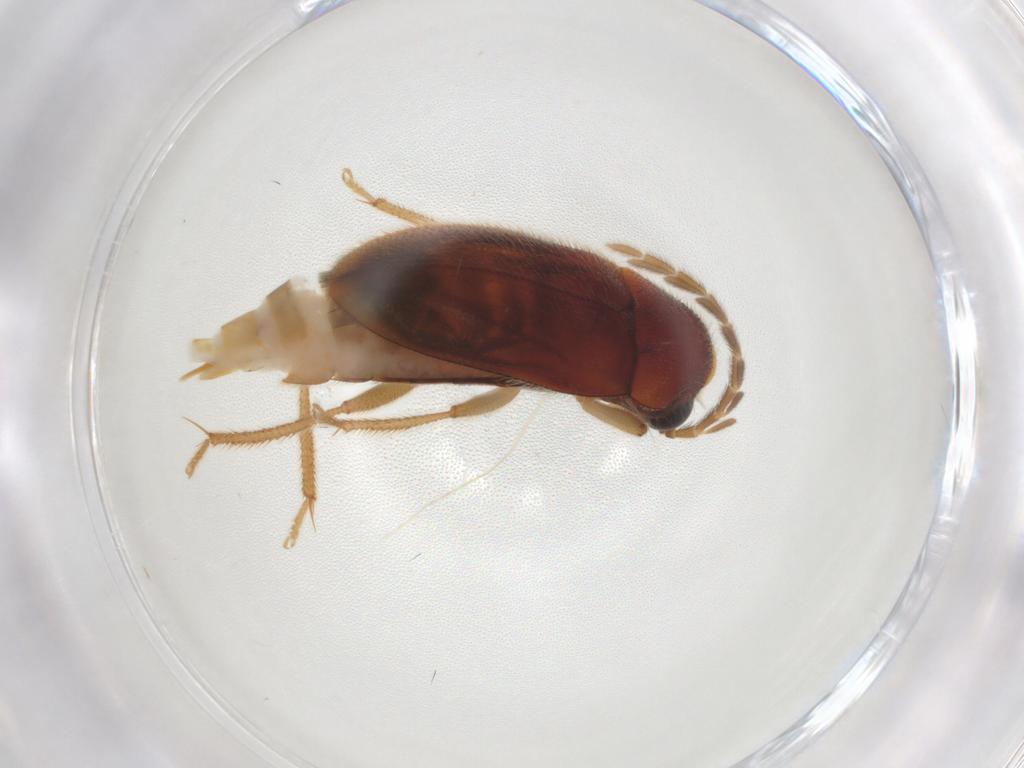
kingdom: Animalia
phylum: Arthropoda
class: Insecta
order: Coleoptera
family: Ptilodactylidae
